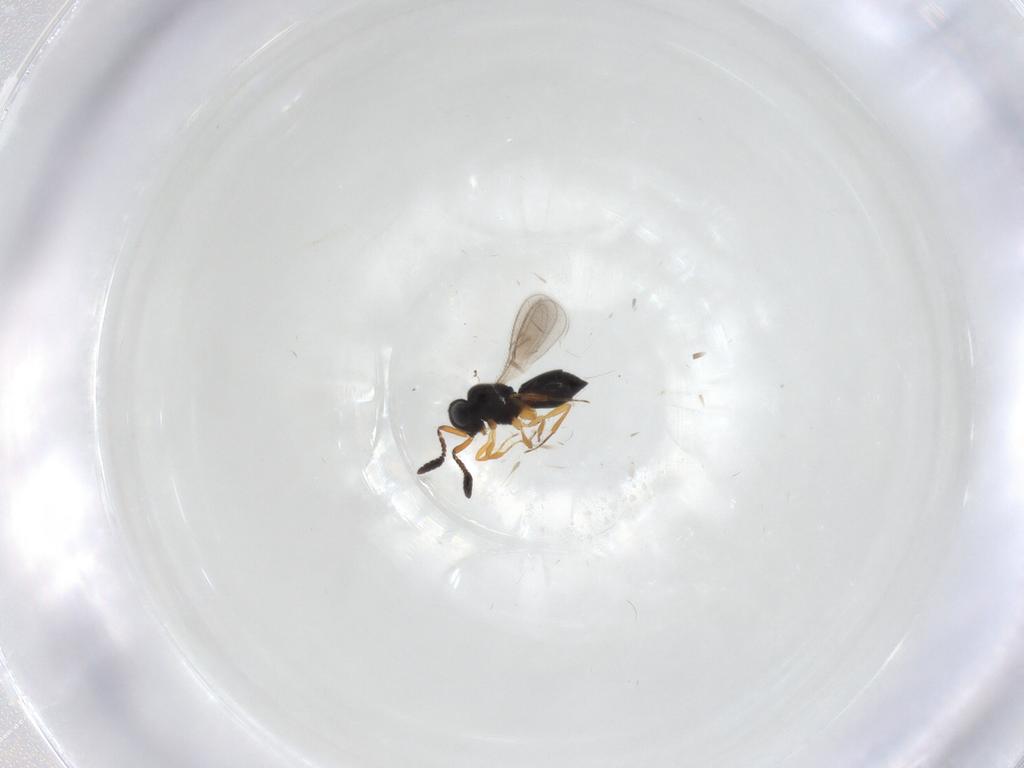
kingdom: Animalia
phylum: Arthropoda
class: Insecta
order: Hymenoptera
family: Scelionidae
